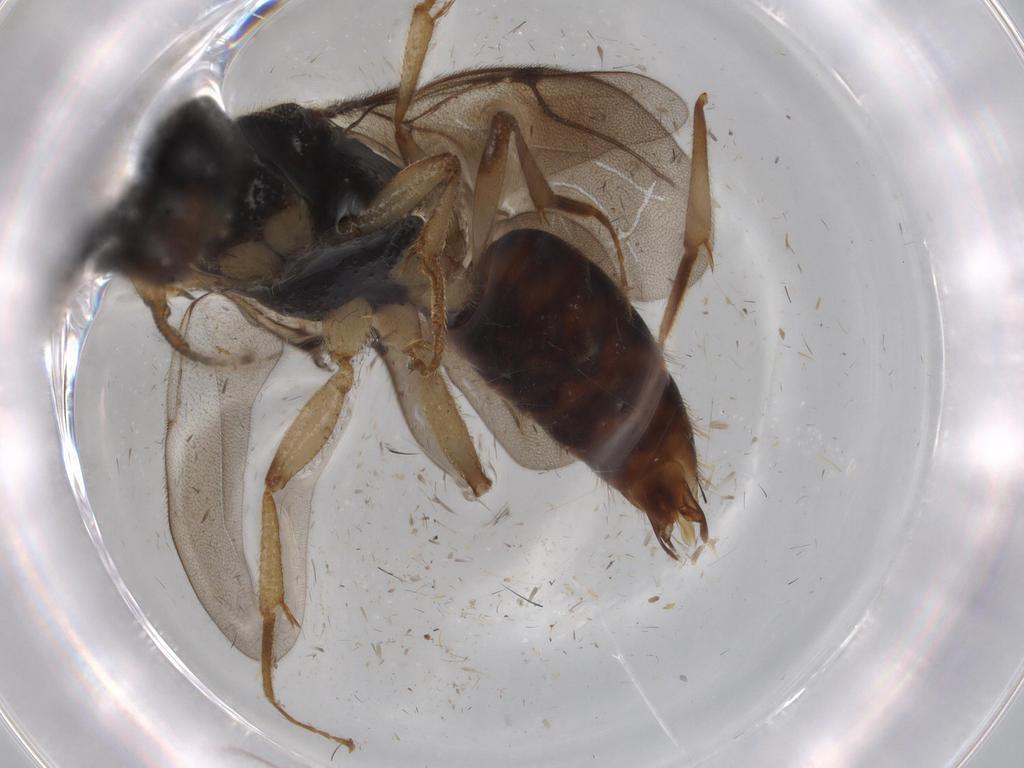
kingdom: Animalia
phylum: Arthropoda
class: Insecta
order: Hymenoptera
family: Bethylidae
